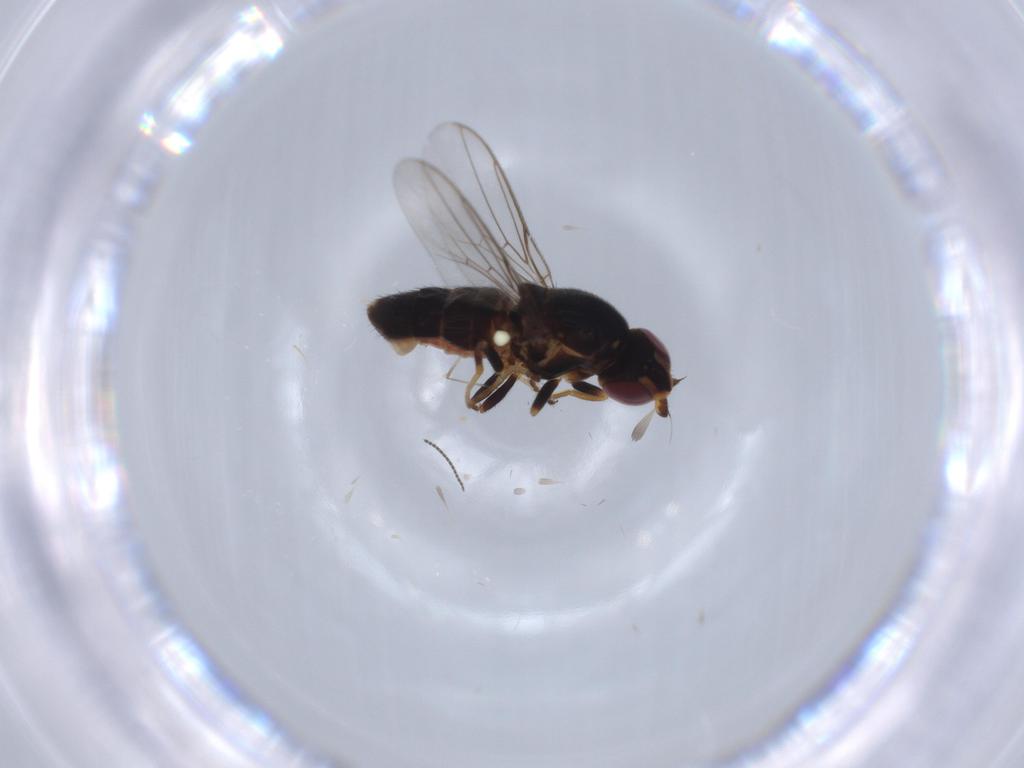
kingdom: Animalia
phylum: Arthropoda
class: Insecta
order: Diptera
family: Chloropidae
